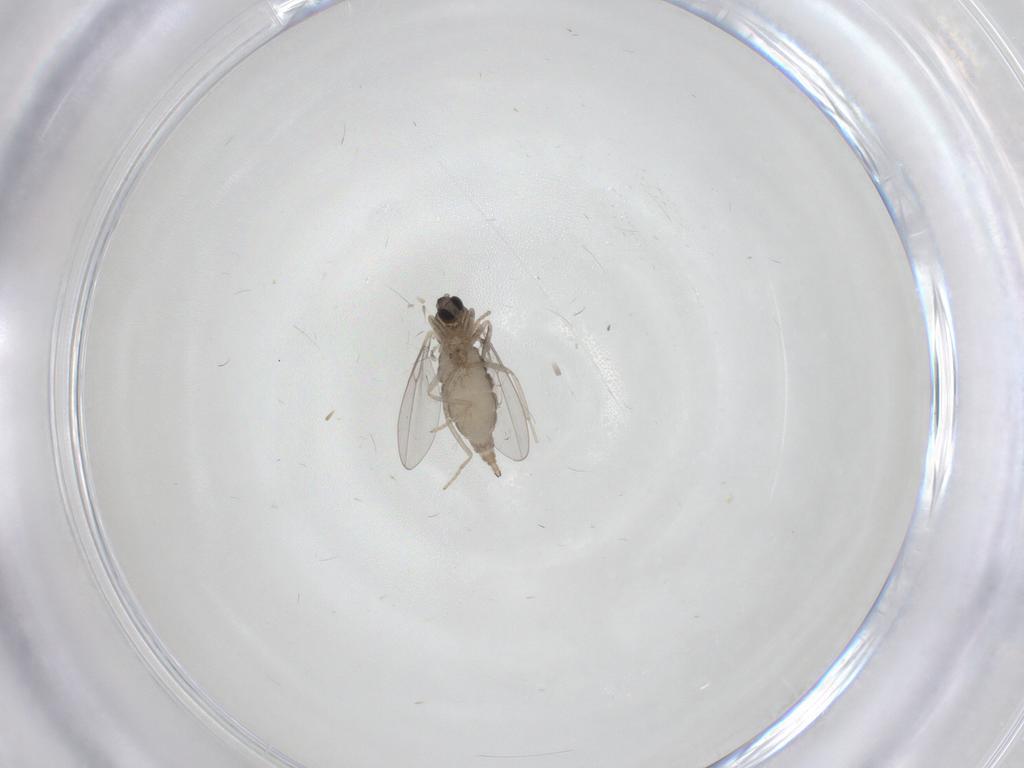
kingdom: Animalia
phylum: Arthropoda
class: Insecta
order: Diptera
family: Cecidomyiidae
